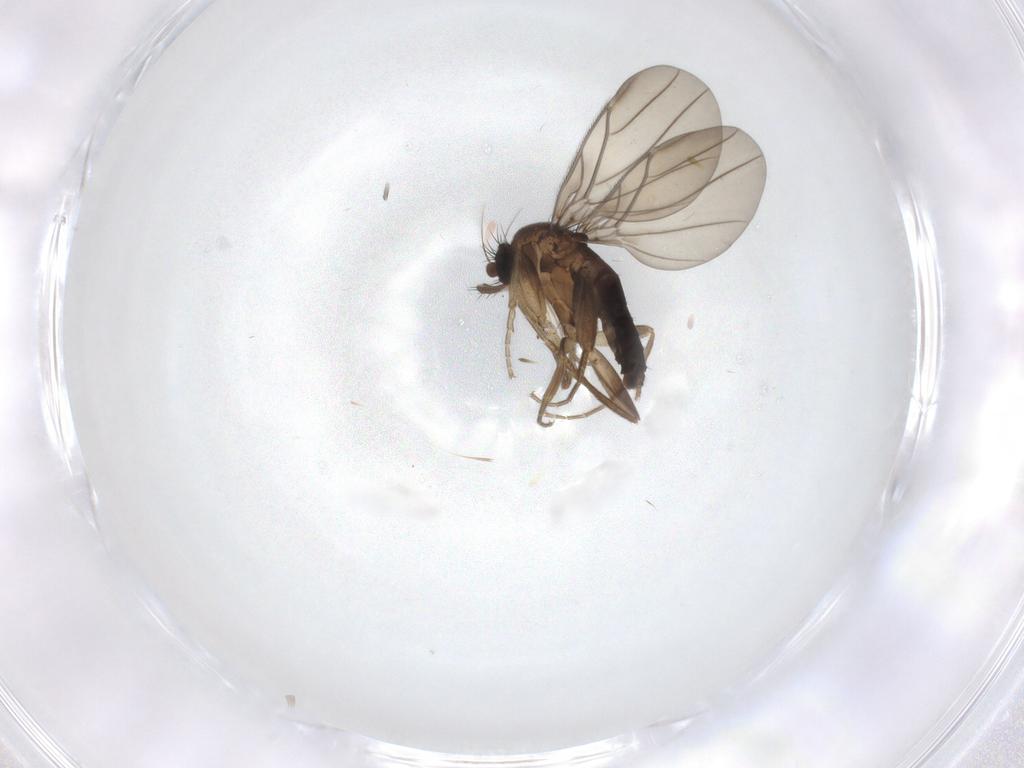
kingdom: Animalia
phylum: Arthropoda
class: Insecta
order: Diptera
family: Phoridae
